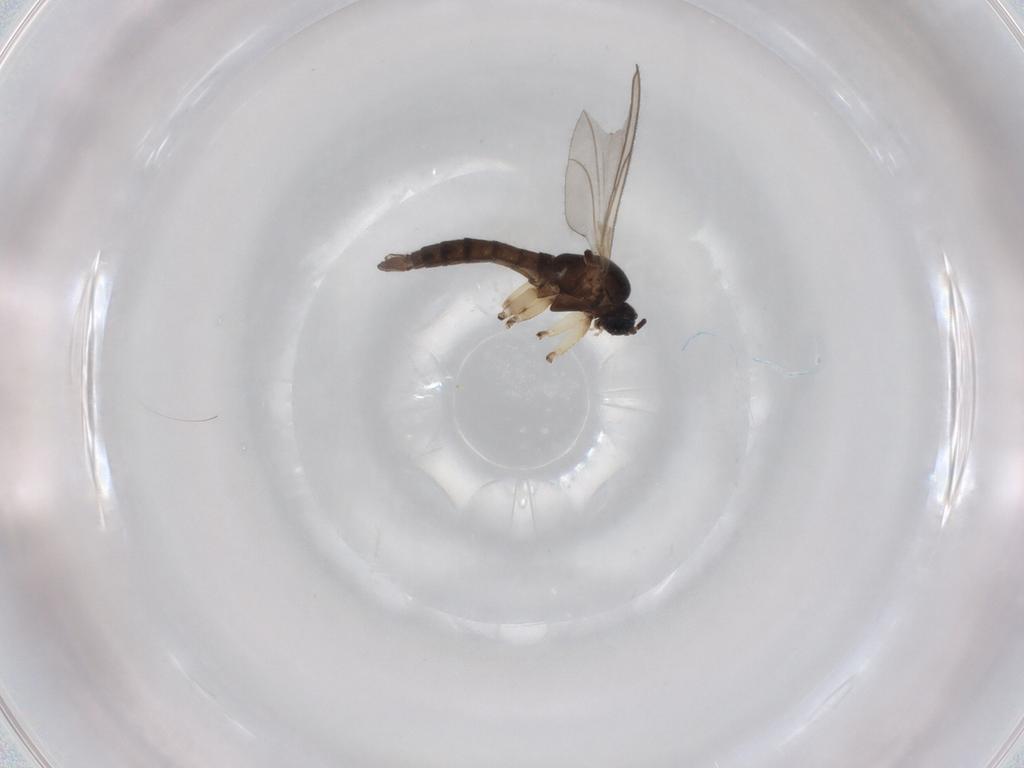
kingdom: Animalia
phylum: Arthropoda
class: Insecta
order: Diptera
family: Sciaridae
